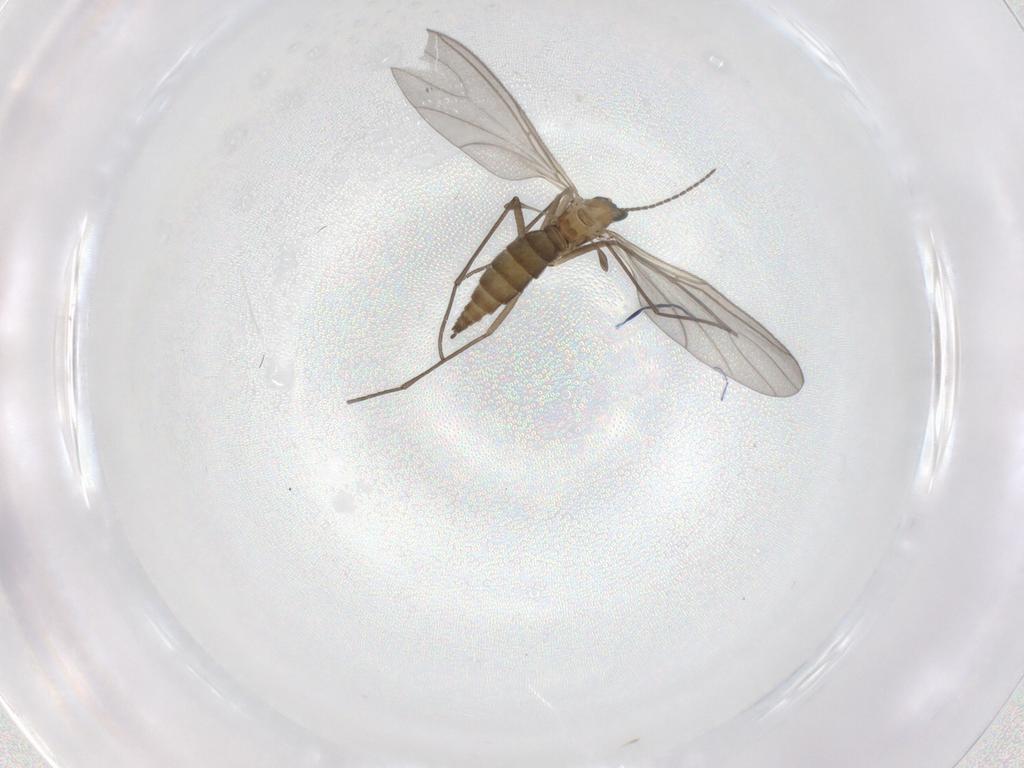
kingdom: Animalia
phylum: Arthropoda
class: Insecta
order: Diptera
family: Sciaridae
